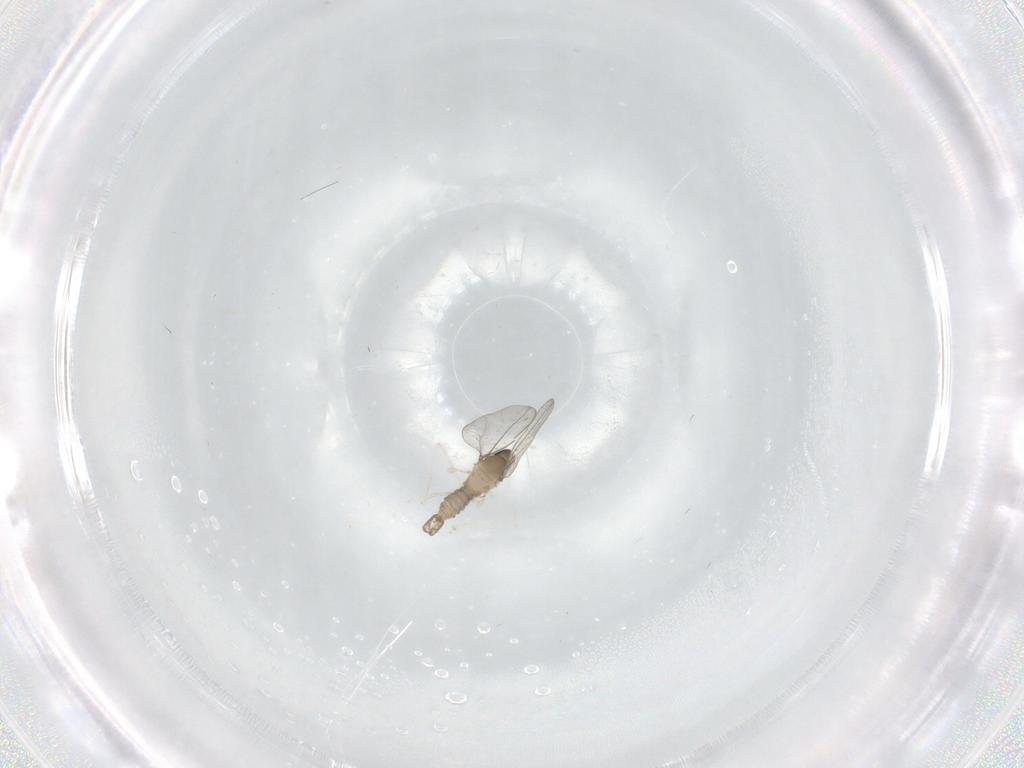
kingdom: Animalia
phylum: Arthropoda
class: Insecta
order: Diptera
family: Cecidomyiidae
